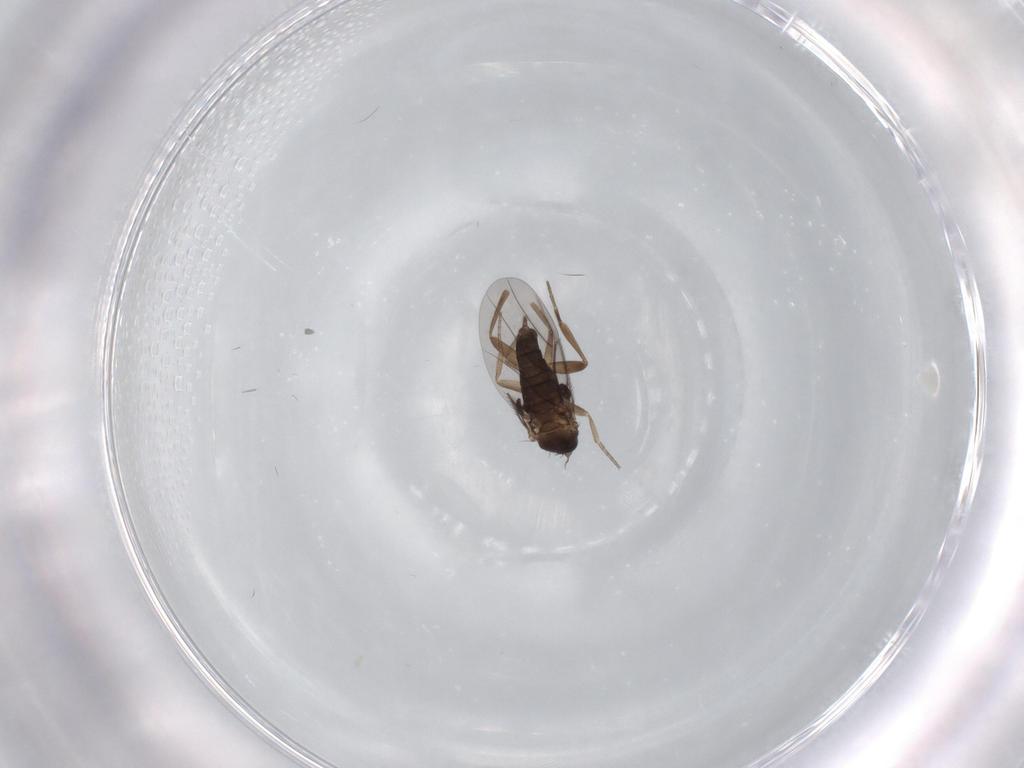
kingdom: Animalia
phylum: Arthropoda
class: Insecta
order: Diptera
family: Phoridae
